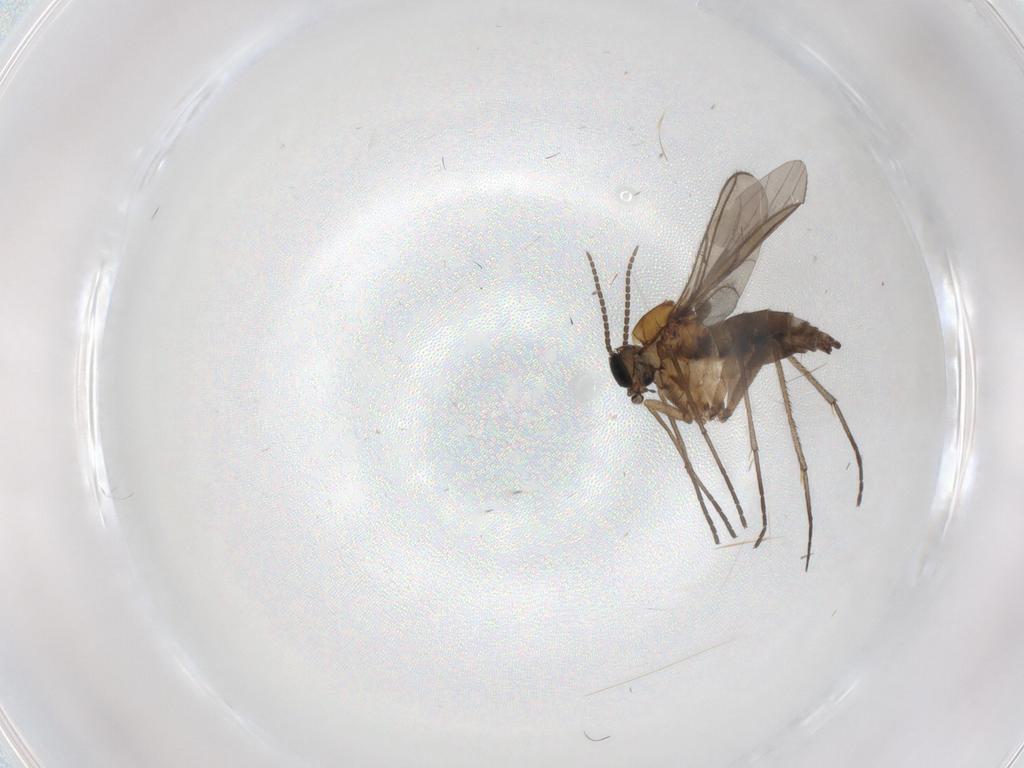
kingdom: Animalia
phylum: Arthropoda
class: Insecta
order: Diptera
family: Sciaridae
